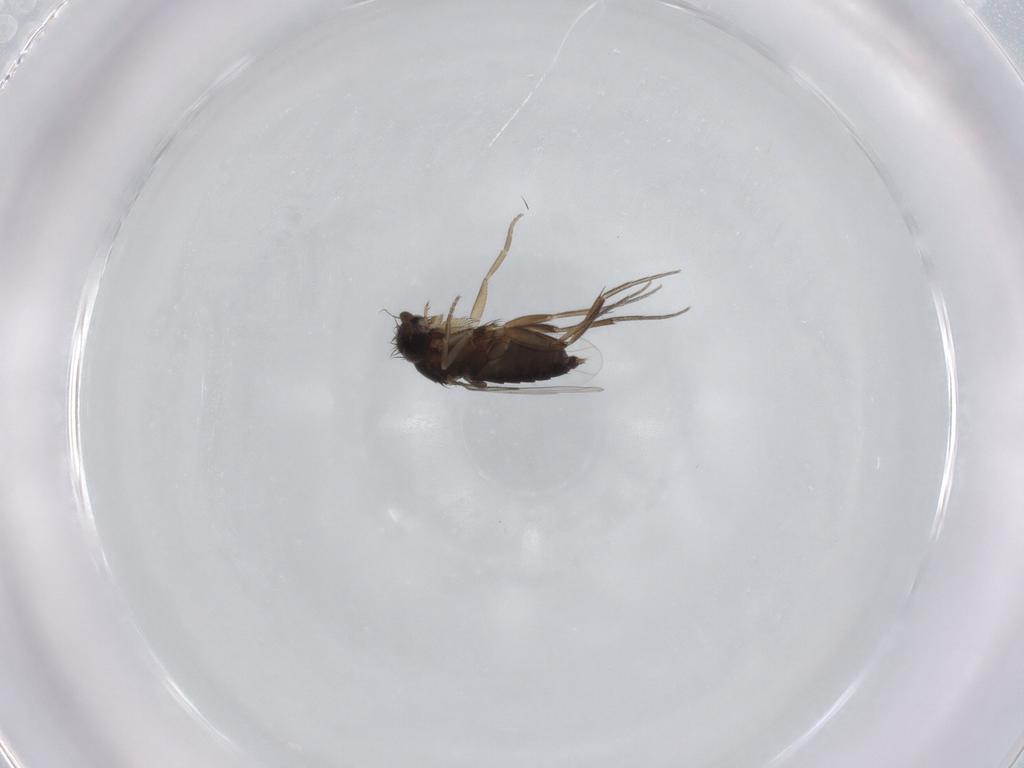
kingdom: Animalia
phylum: Arthropoda
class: Insecta
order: Diptera
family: Phoridae
